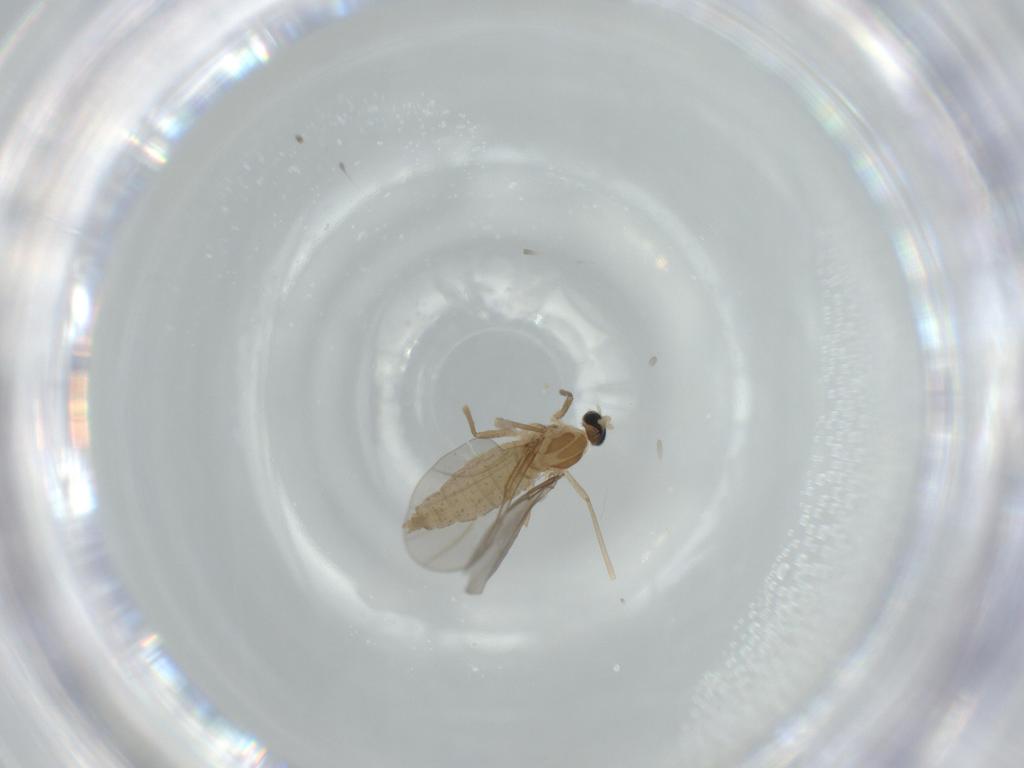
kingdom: Animalia
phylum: Arthropoda
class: Insecta
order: Diptera
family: Cecidomyiidae
